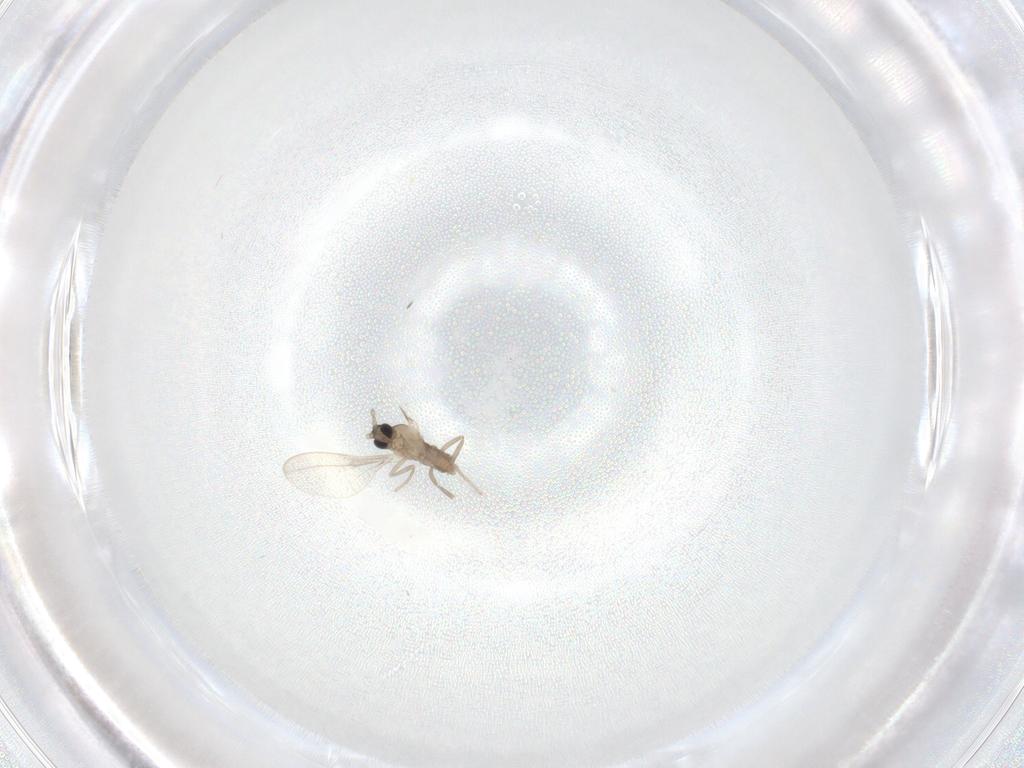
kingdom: Animalia
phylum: Arthropoda
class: Insecta
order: Diptera
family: Cecidomyiidae
